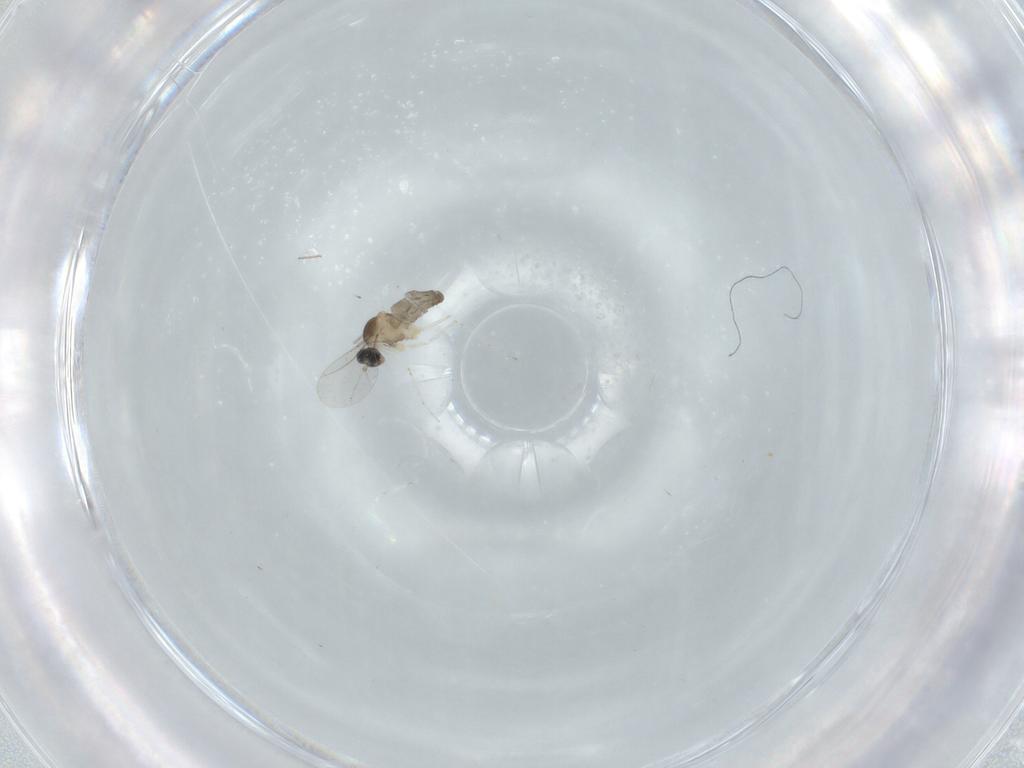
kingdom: Animalia
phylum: Arthropoda
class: Insecta
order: Diptera
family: Cecidomyiidae
